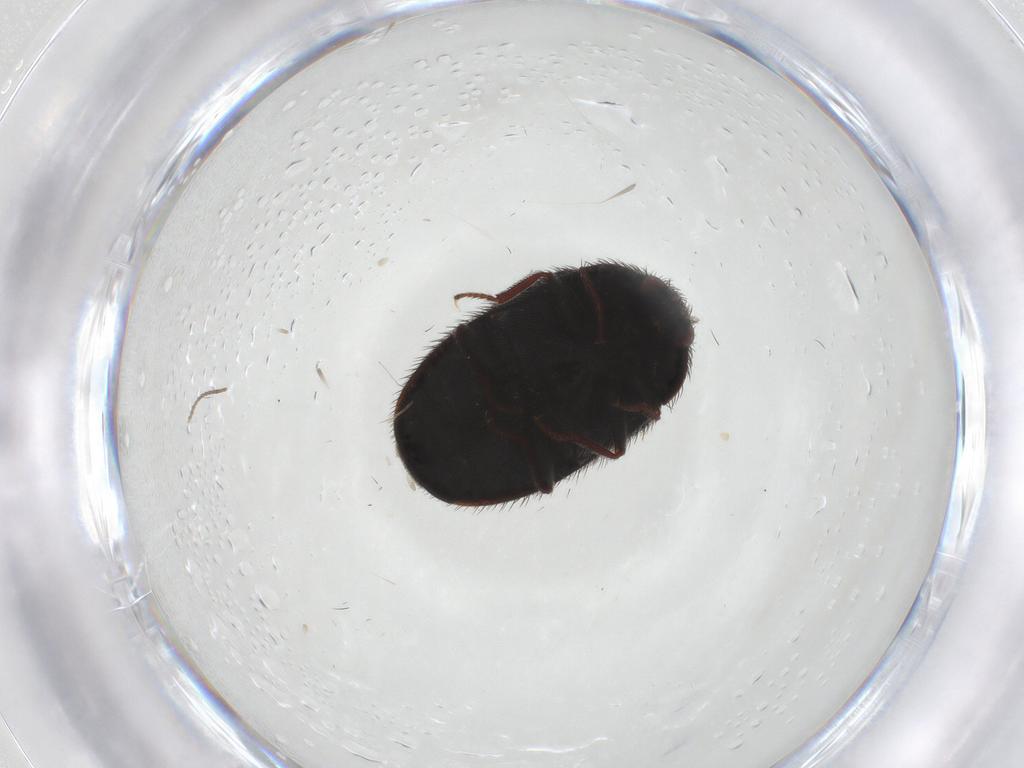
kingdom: Animalia
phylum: Arthropoda
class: Insecta
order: Coleoptera
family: Dermestidae
